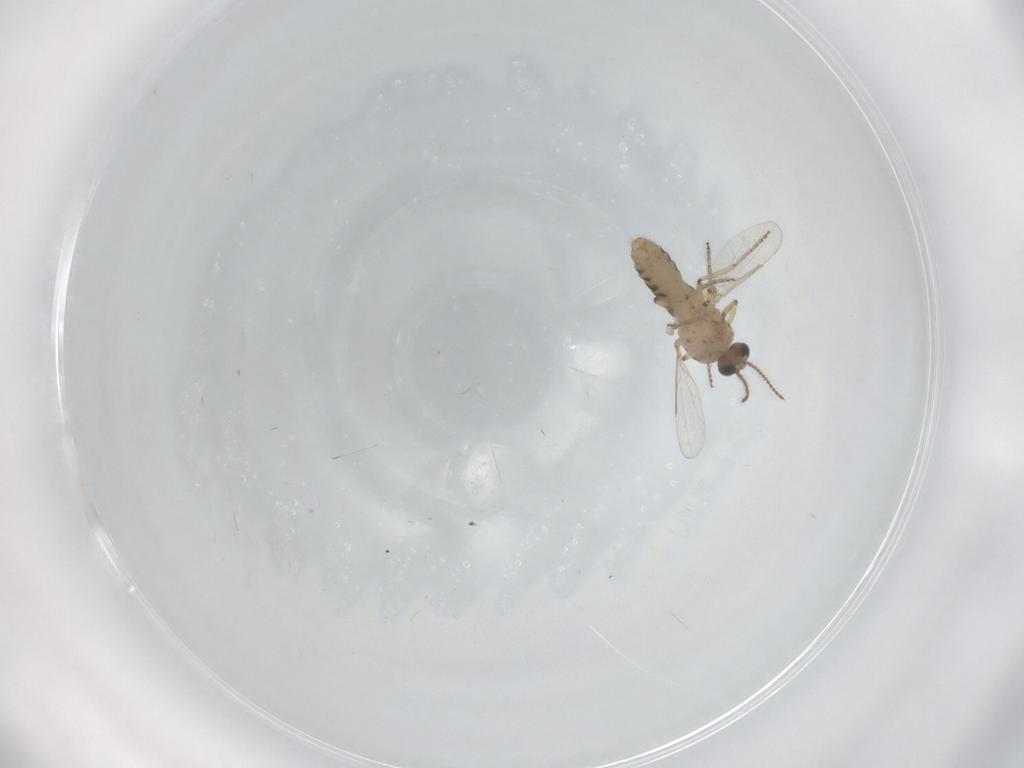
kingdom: Animalia
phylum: Arthropoda
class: Insecta
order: Diptera
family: Ceratopogonidae
